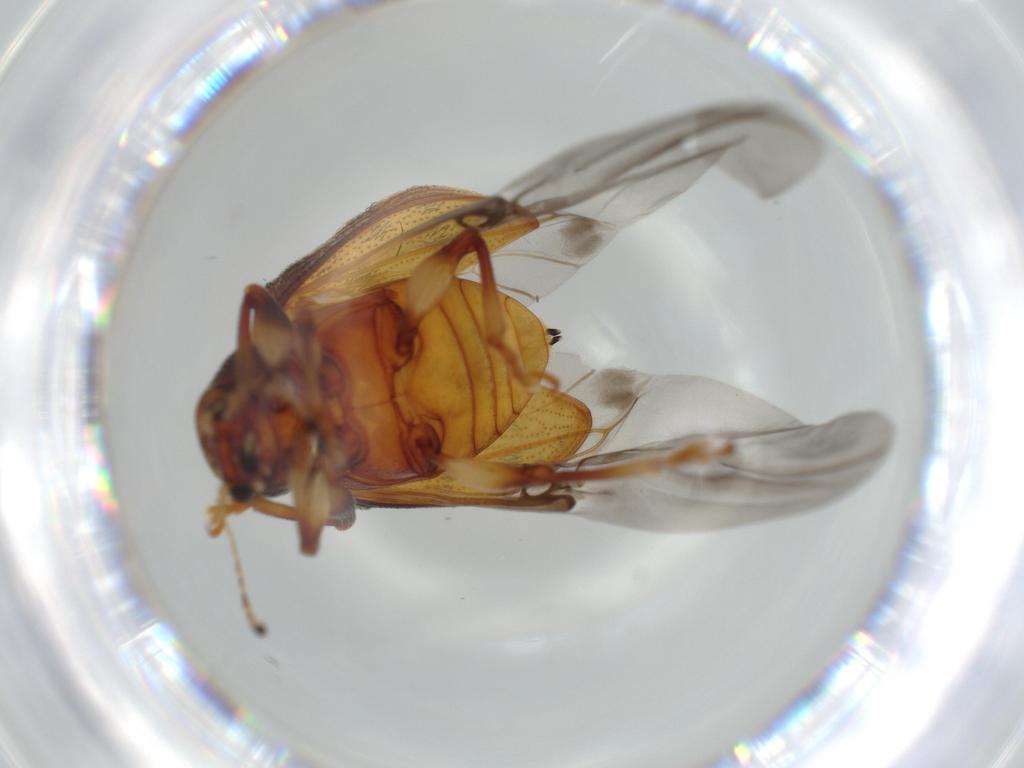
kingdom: Animalia
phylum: Arthropoda
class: Insecta
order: Coleoptera
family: Chrysomelidae
